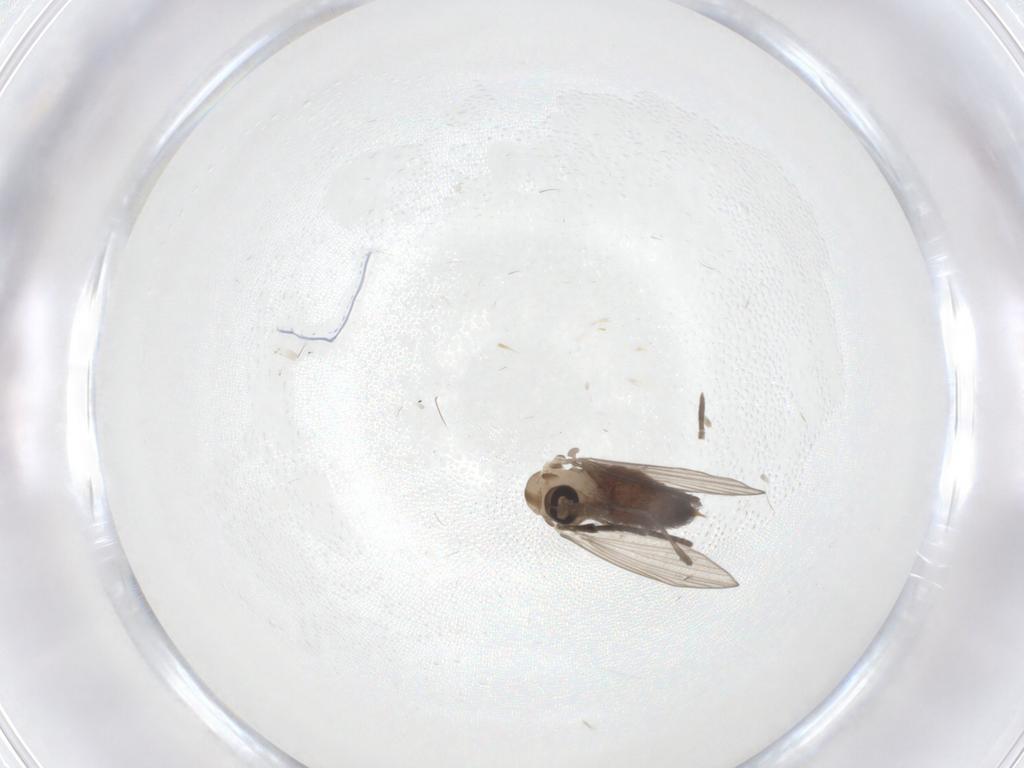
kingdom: Animalia
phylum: Arthropoda
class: Insecta
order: Diptera
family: Psychodidae
